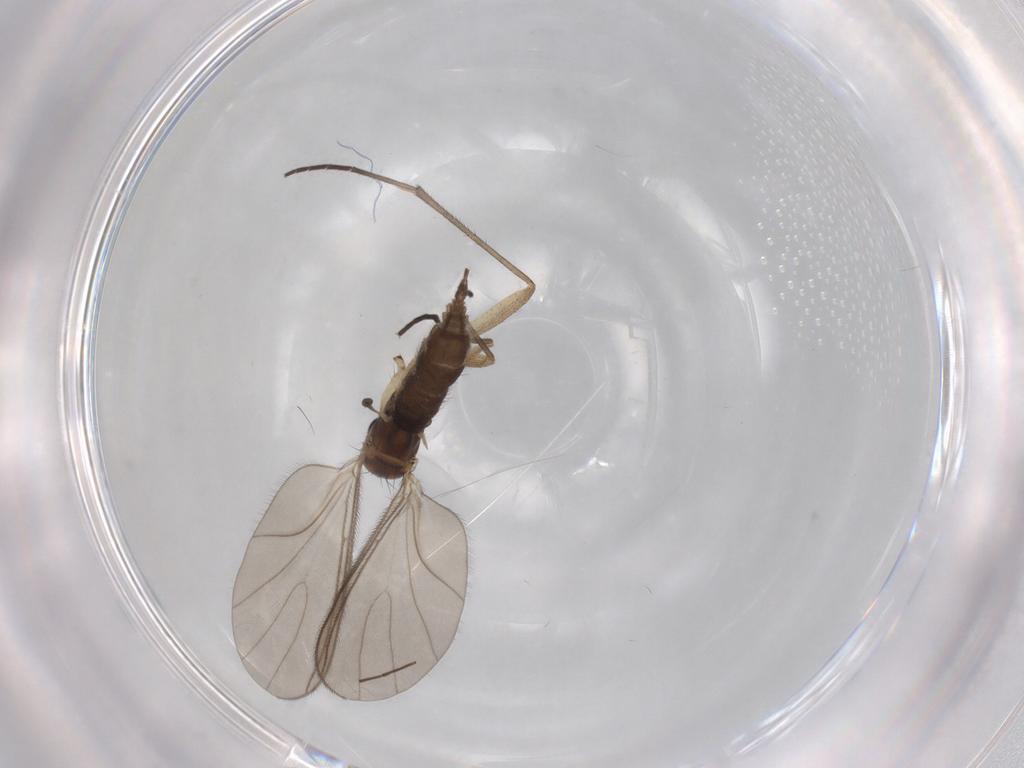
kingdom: Animalia
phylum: Arthropoda
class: Insecta
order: Diptera
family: Sciaridae
